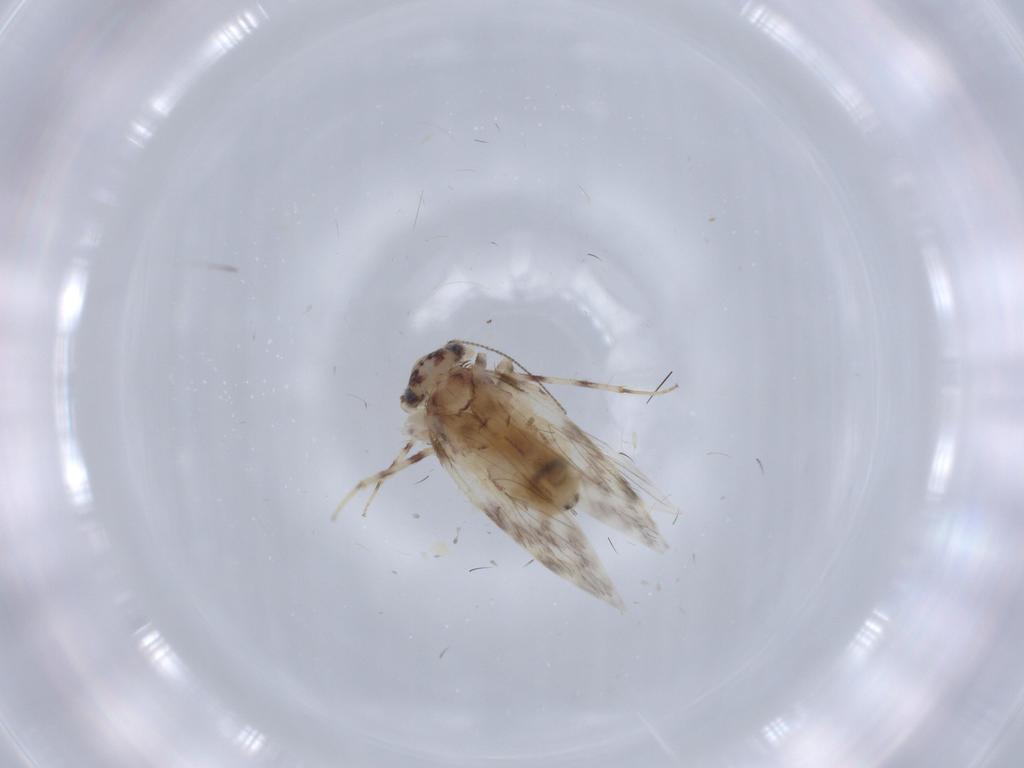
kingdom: Animalia
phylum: Arthropoda
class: Insecta
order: Psocodea
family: Lepidopsocidae
